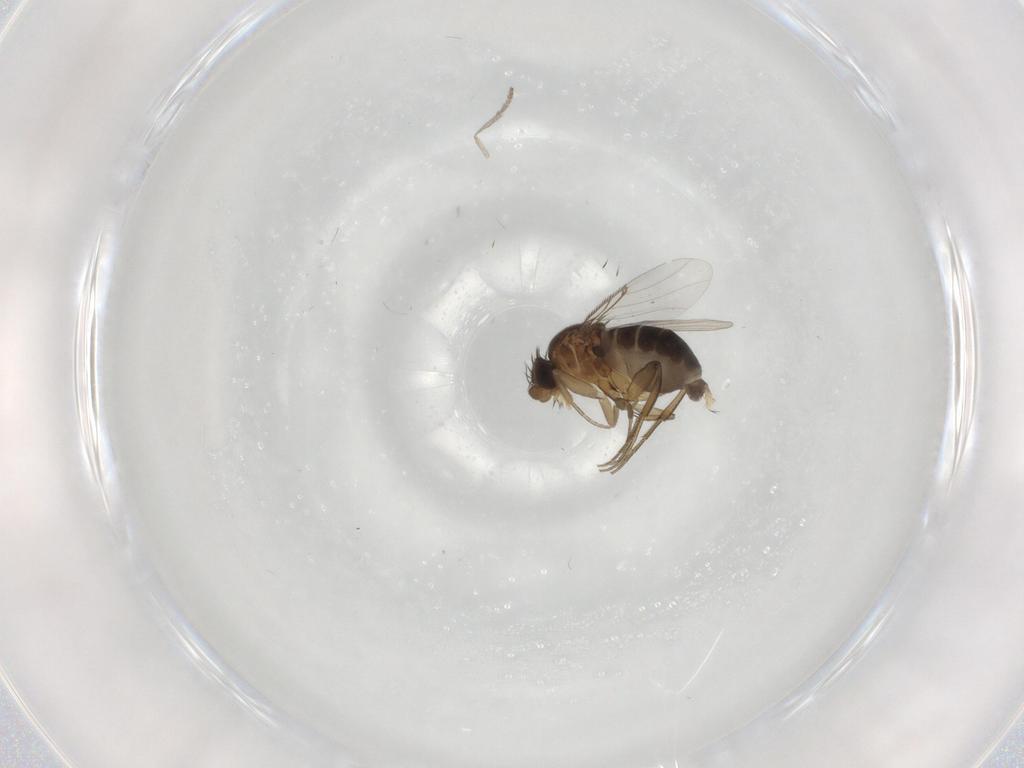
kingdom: Animalia
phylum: Arthropoda
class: Insecta
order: Diptera
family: Phoridae
